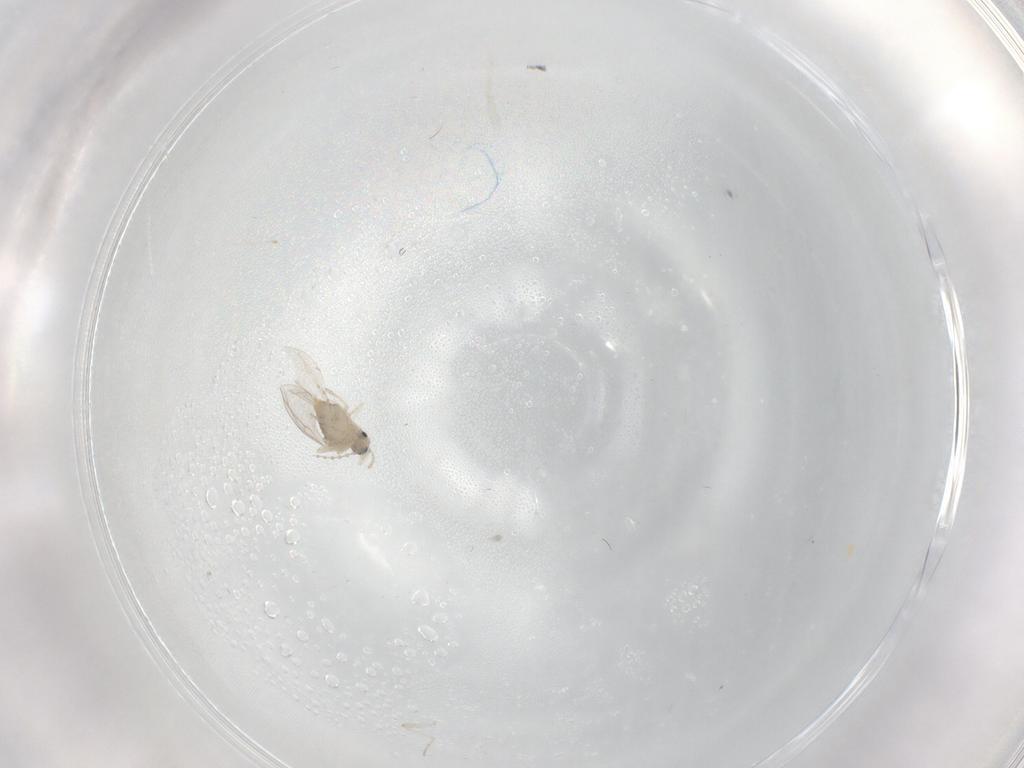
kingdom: Animalia
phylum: Arthropoda
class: Insecta
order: Diptera
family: Cecidomyiidae
